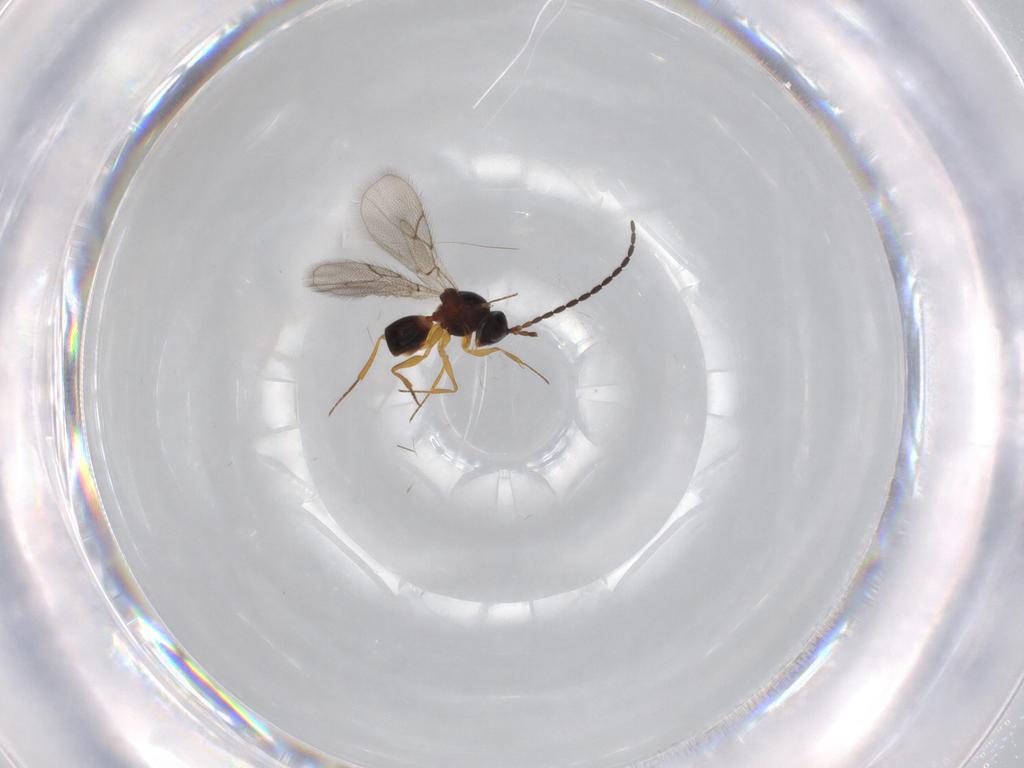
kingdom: Animalia
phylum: Arthropoda
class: Insecta
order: Hymenoptera
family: Figitidae
